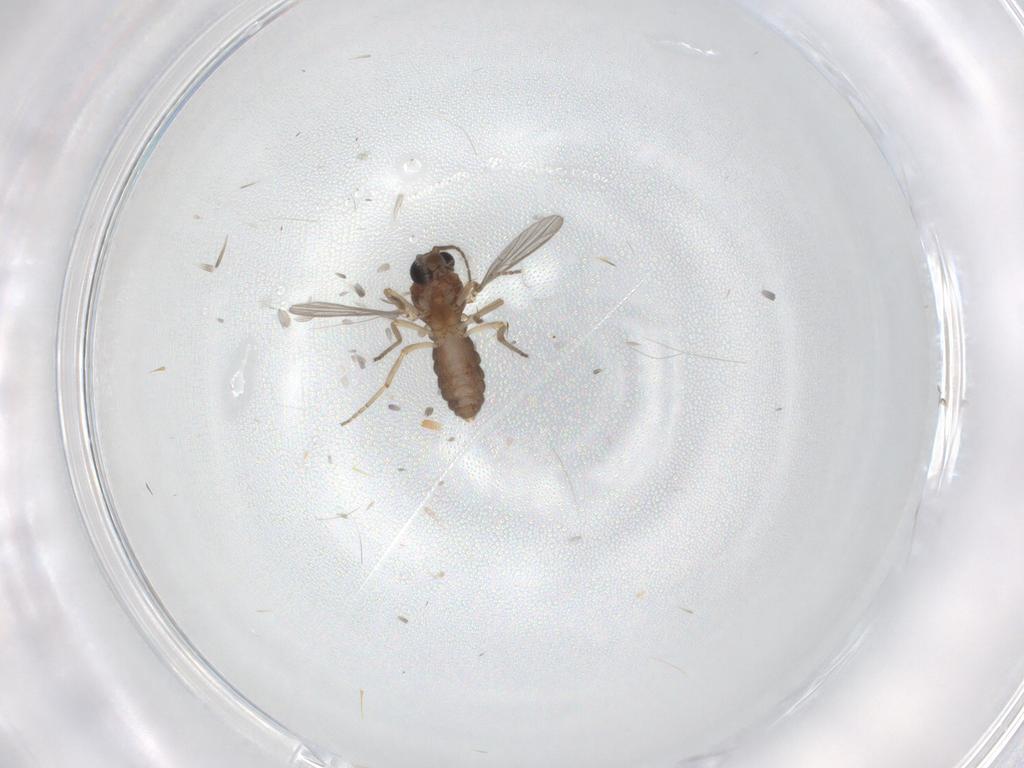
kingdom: Animalia
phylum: Arthropoda
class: Insecta
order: Diptera
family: Ceratopogonidae
